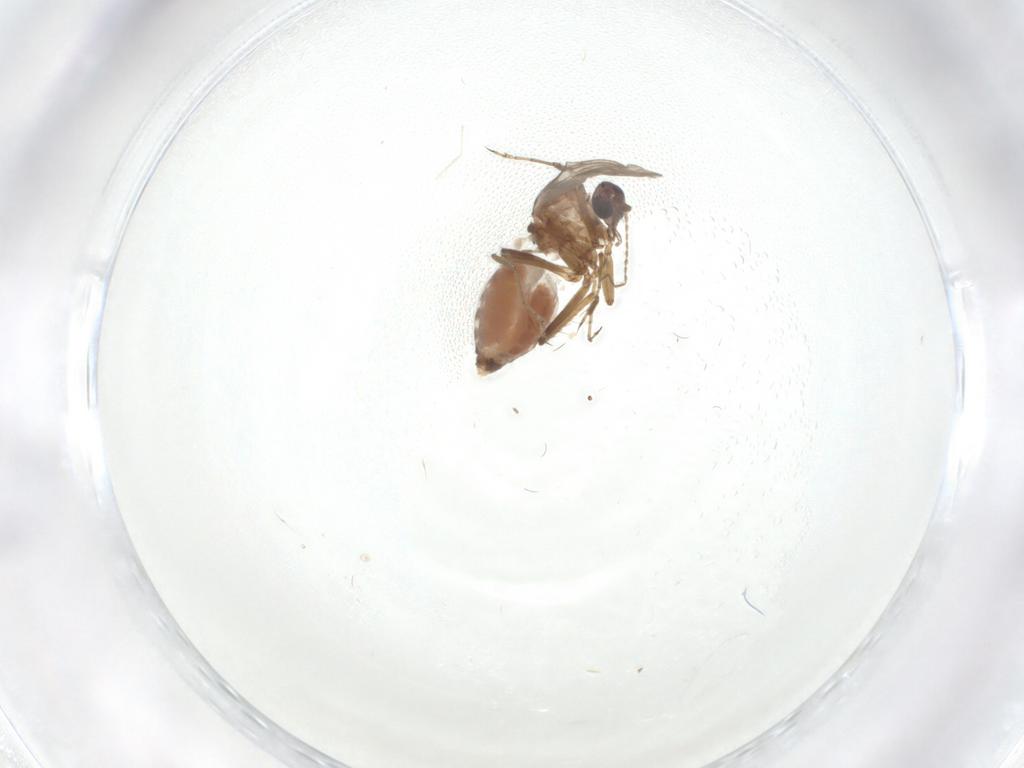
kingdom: Animalia
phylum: Arthropoda
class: Insecta
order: Diptera
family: Ceratopogonidae
